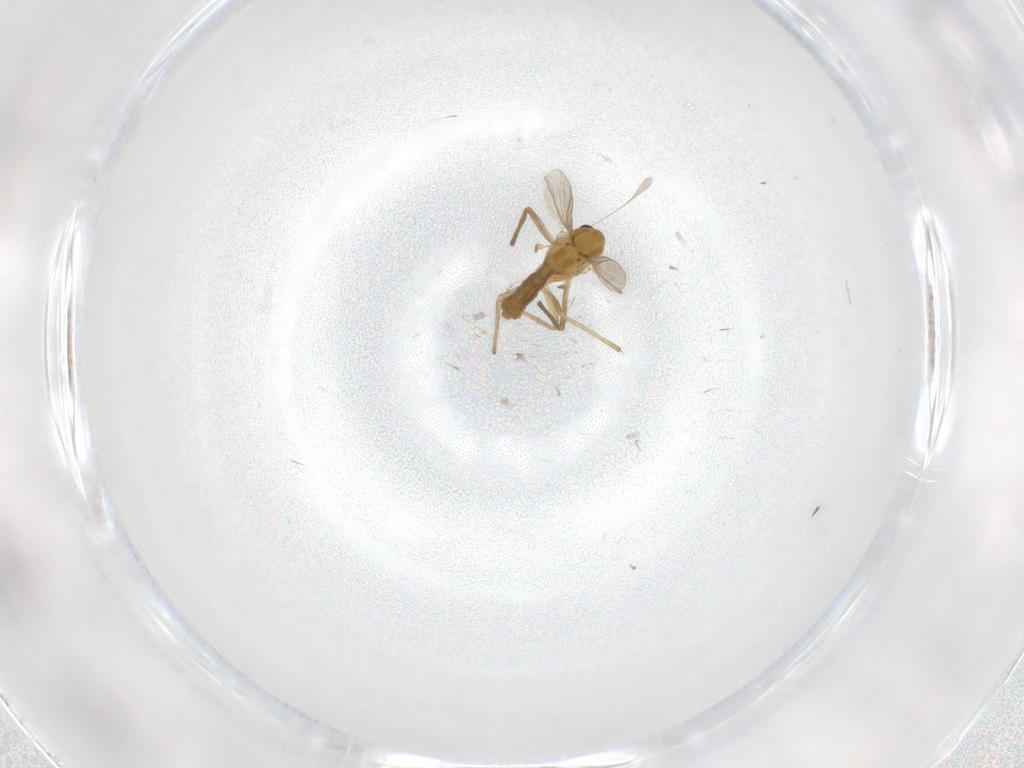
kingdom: Animalia
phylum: Arthropoda
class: Insecta
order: Diptera
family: Chironomidae
